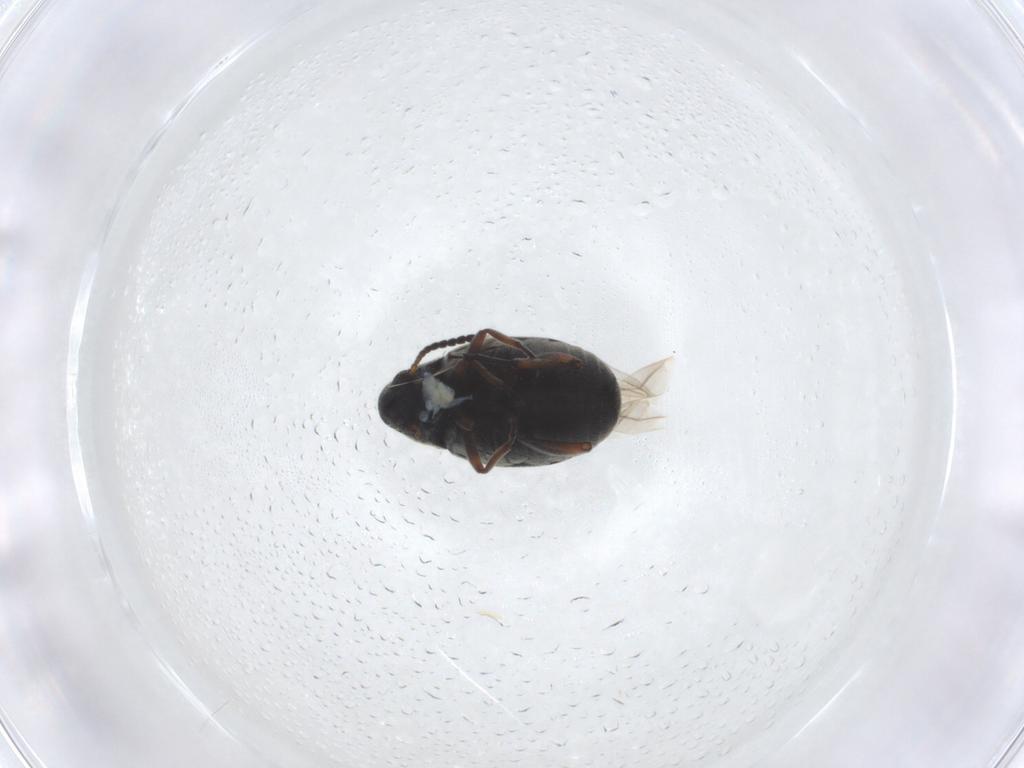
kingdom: Animalia
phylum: Arthropoda
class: Insecta
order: Coleoptera
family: Chrysomelidae
